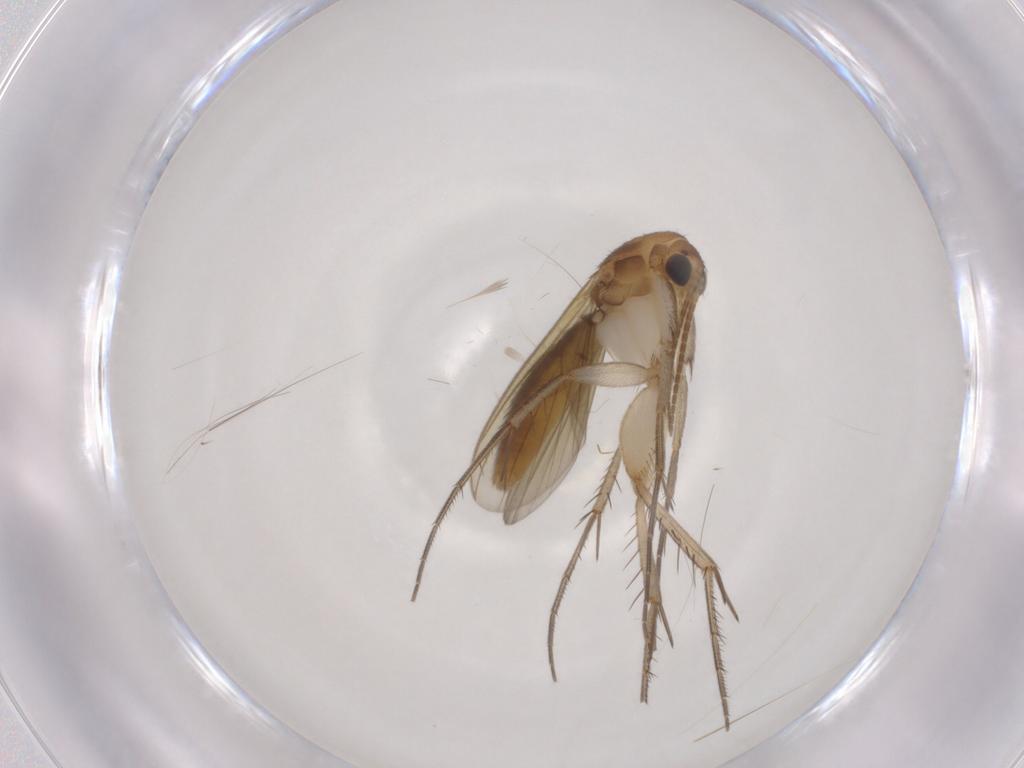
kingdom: Animalia
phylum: Arthropoda
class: Insecta
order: Diptera
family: Mycetophilidae
